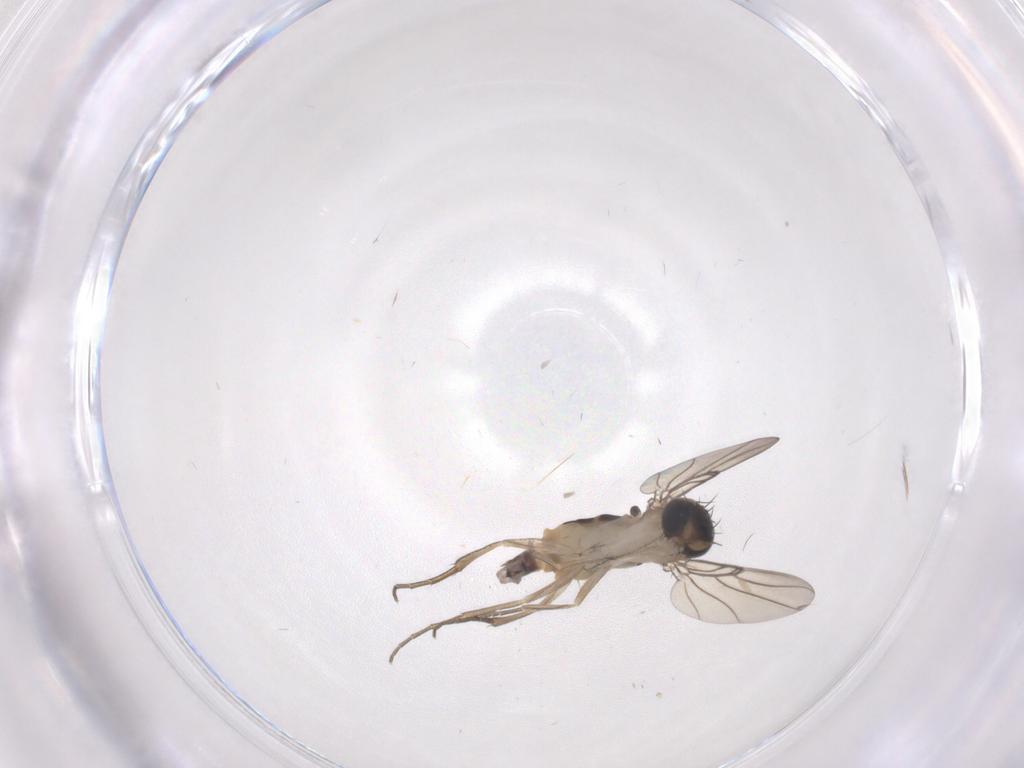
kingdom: Animalia
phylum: Arthropoda
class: Insecta
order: Diptera
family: Phoridae
